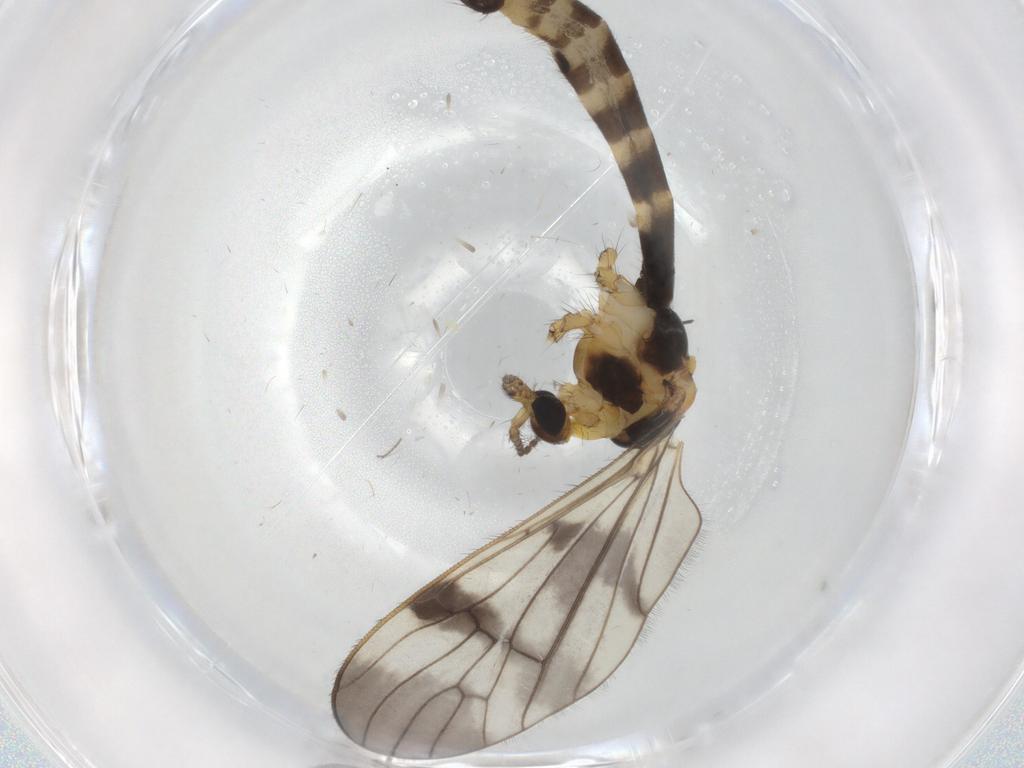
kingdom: Animalia
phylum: Arthropoda
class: Insecta
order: Diptera
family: Limoniidae
